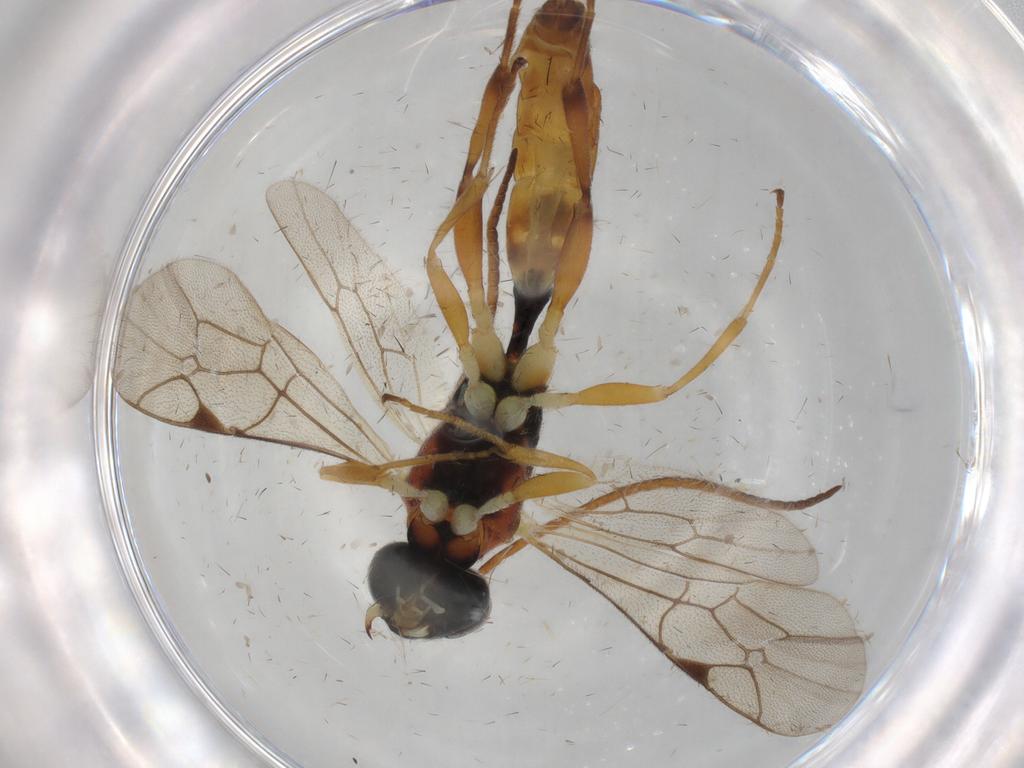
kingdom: Animalia
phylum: Arthropoda
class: Insecta
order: Hymenoptera
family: Ichneumonidae
